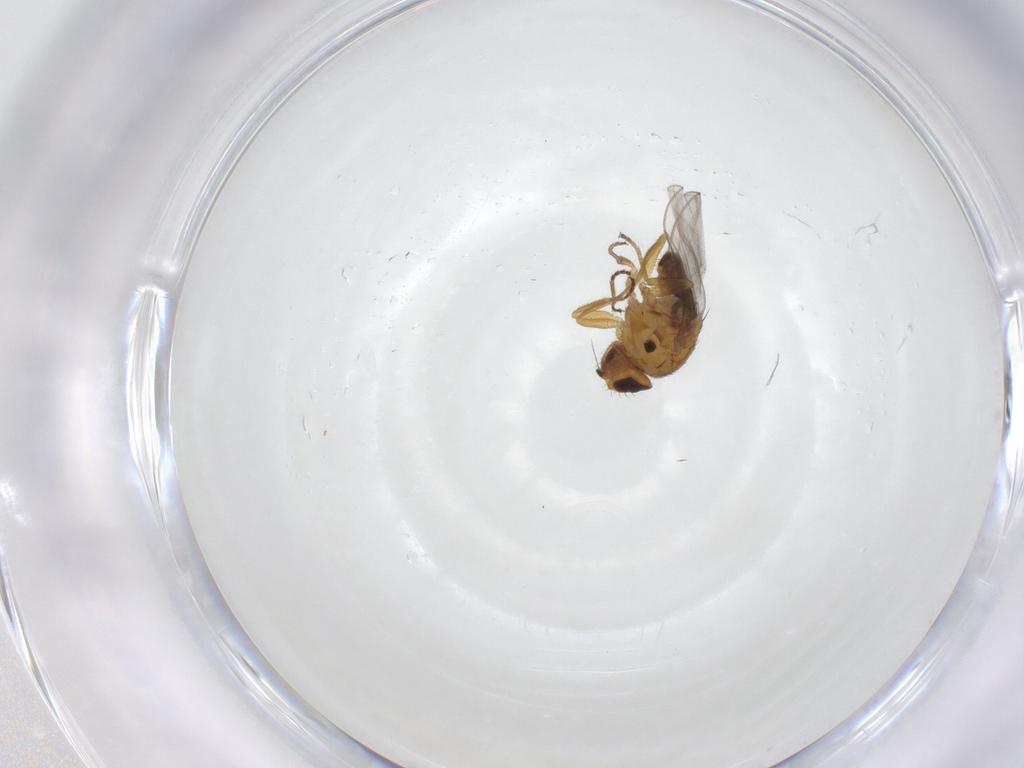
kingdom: Animalia
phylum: Arthropoda
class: Insecta
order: Diptera
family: Chloropidae
